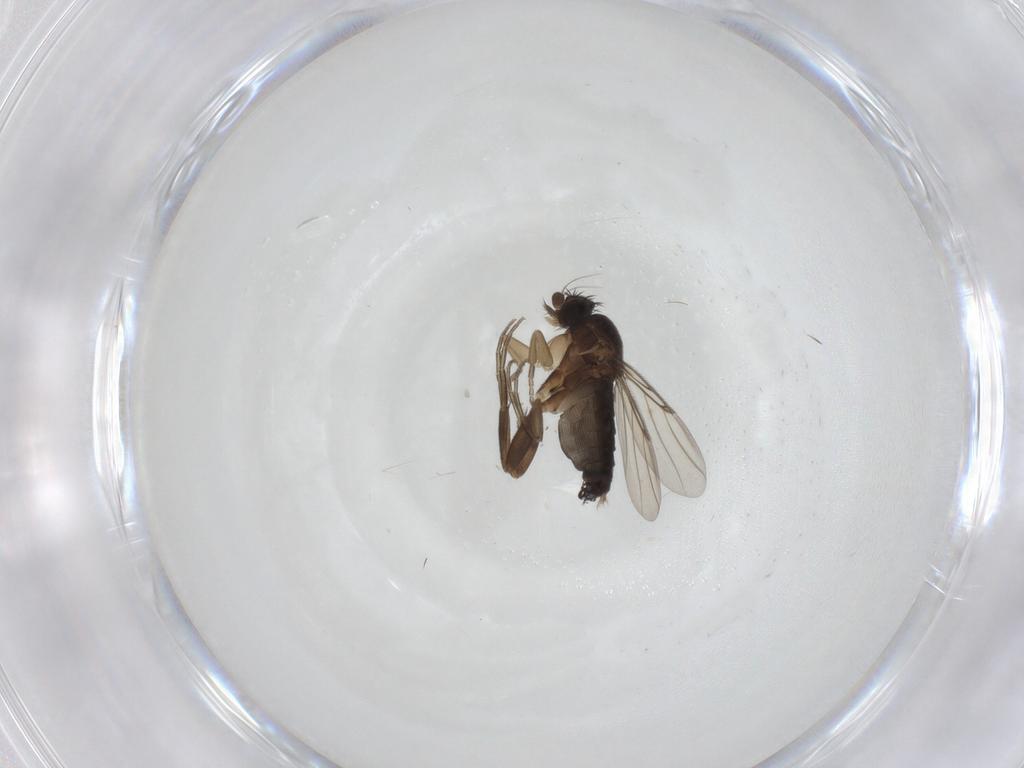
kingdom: Animalia
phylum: Arthropoda
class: Insecta
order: Diptera
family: Phoridae
